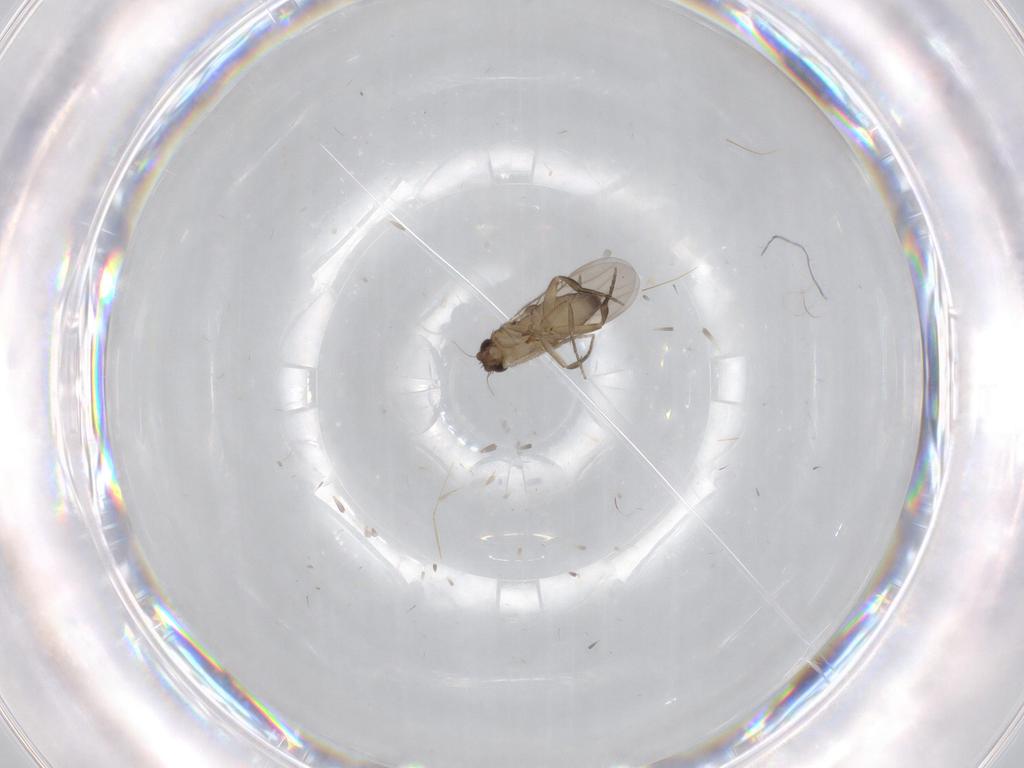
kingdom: Animalia
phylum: Arthropoda
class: Insecta
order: Diptera
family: Phoridae
